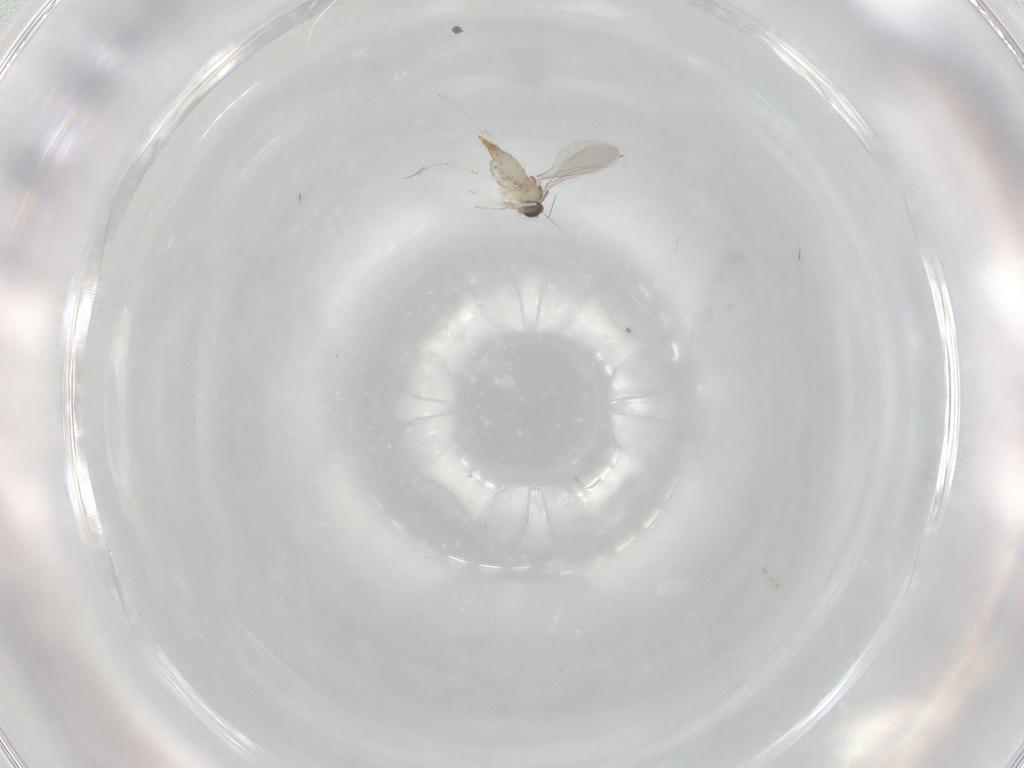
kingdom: Animalia
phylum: Arthropoda
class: Insecta
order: Diptera
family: Cecidomyiidae
